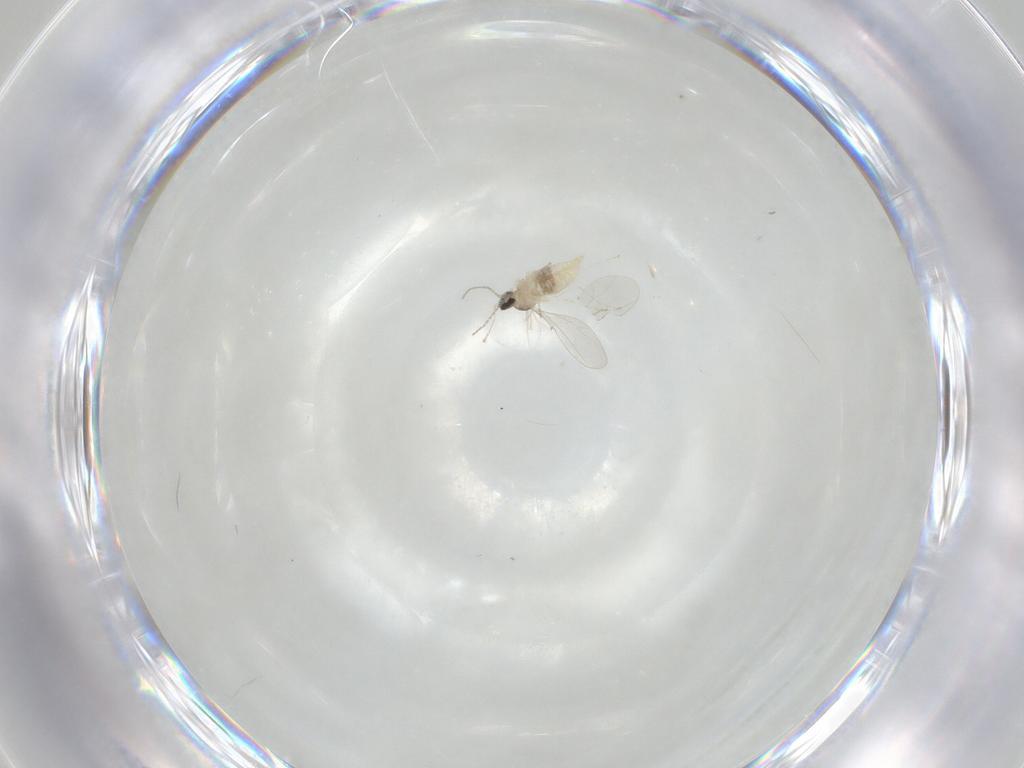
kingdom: Animalia
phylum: Arthropoda
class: Insecta
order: Diptera
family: Cecidomyiidae
